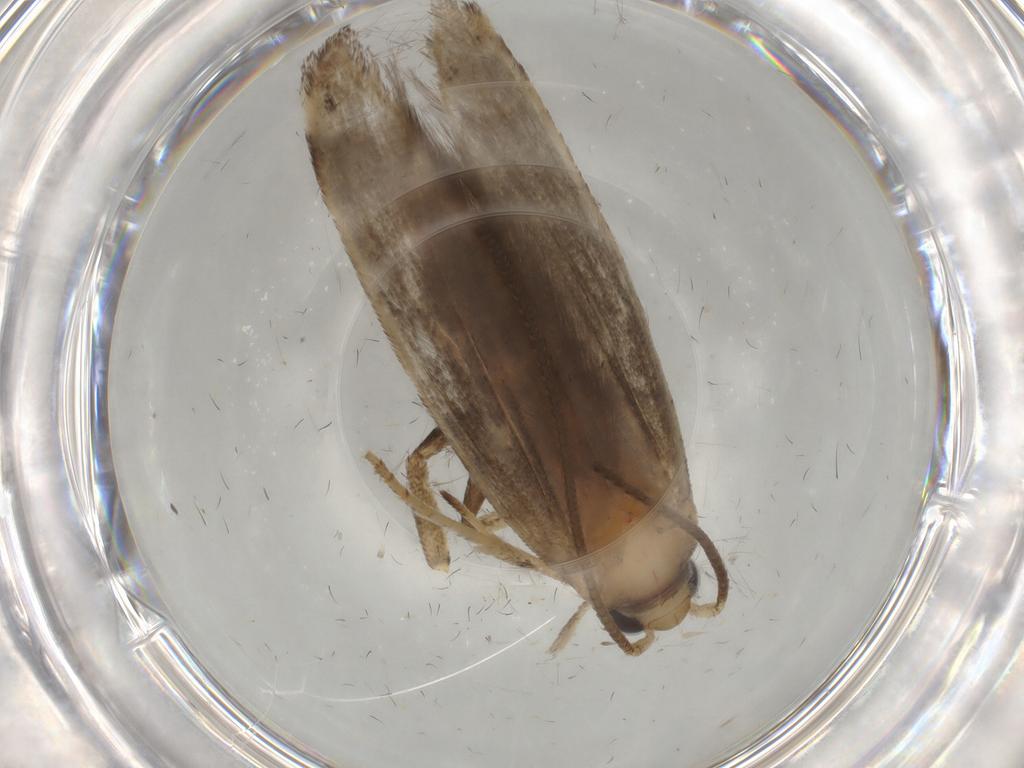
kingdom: Animalia
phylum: Arthropoda
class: Insecta
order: Lepidoptera
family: Yponomeutidae
